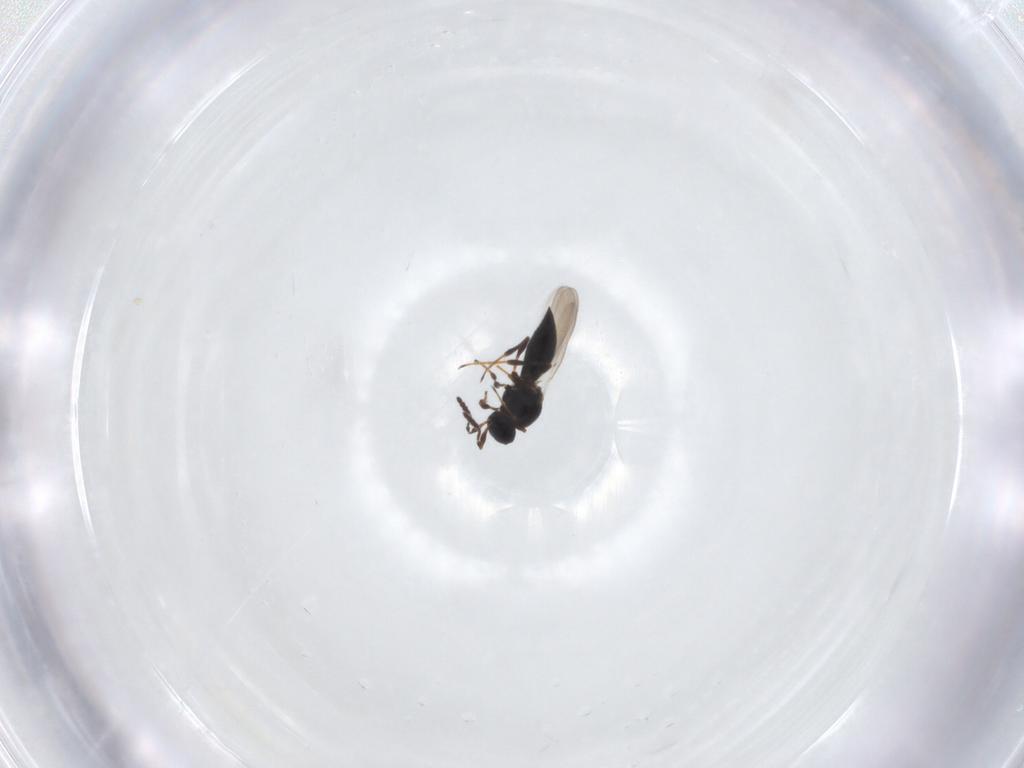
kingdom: Animalia
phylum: Arthropoda
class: Insecta
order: Hymenoptera
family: Platygastridae
